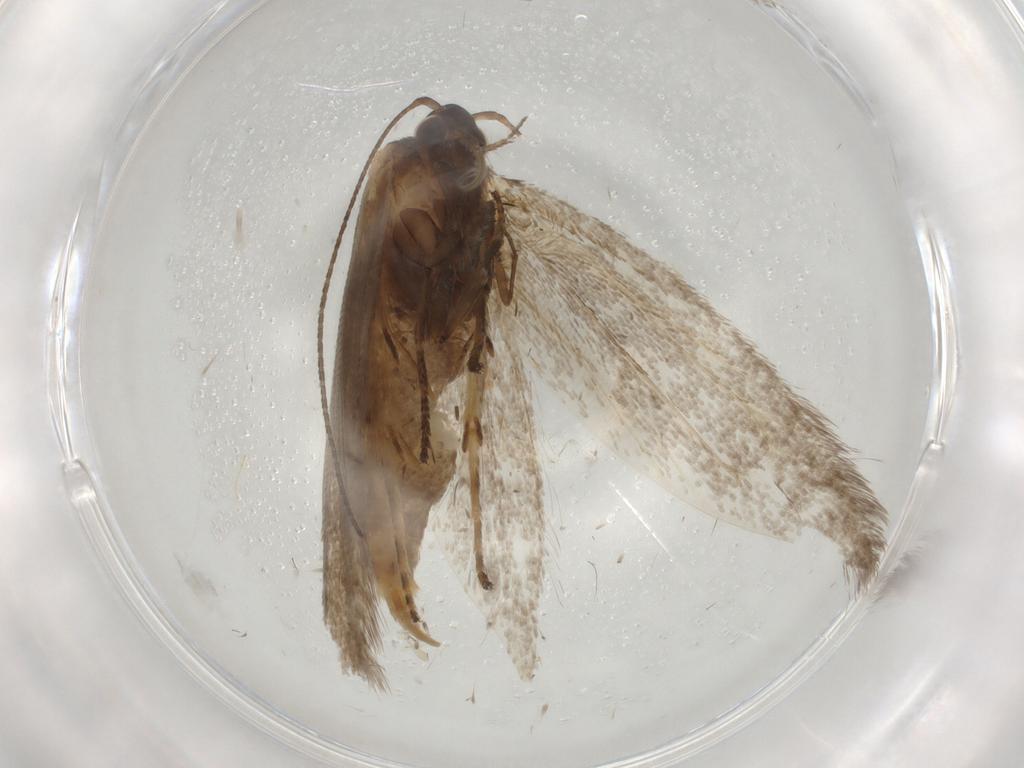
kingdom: Animalia
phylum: Arthropoda
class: Insecta
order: Lepidoptera
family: Oecophoridae
